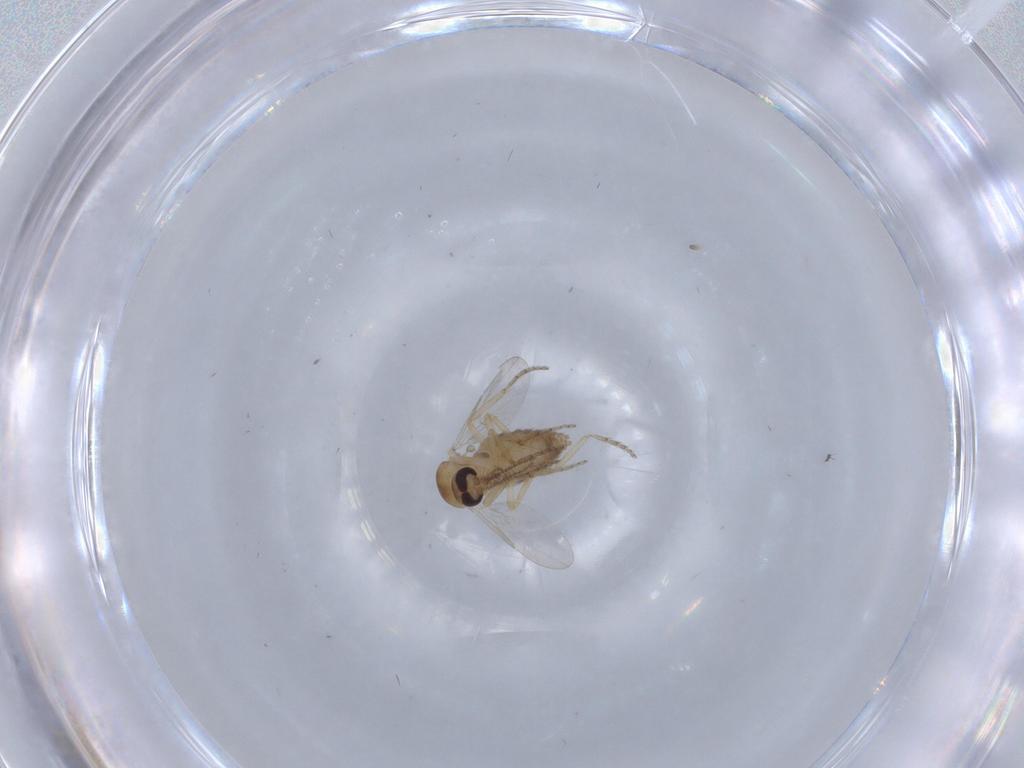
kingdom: Animalia
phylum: Arthropoda
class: Insecta
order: Diptera
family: Ceratopogonidae
